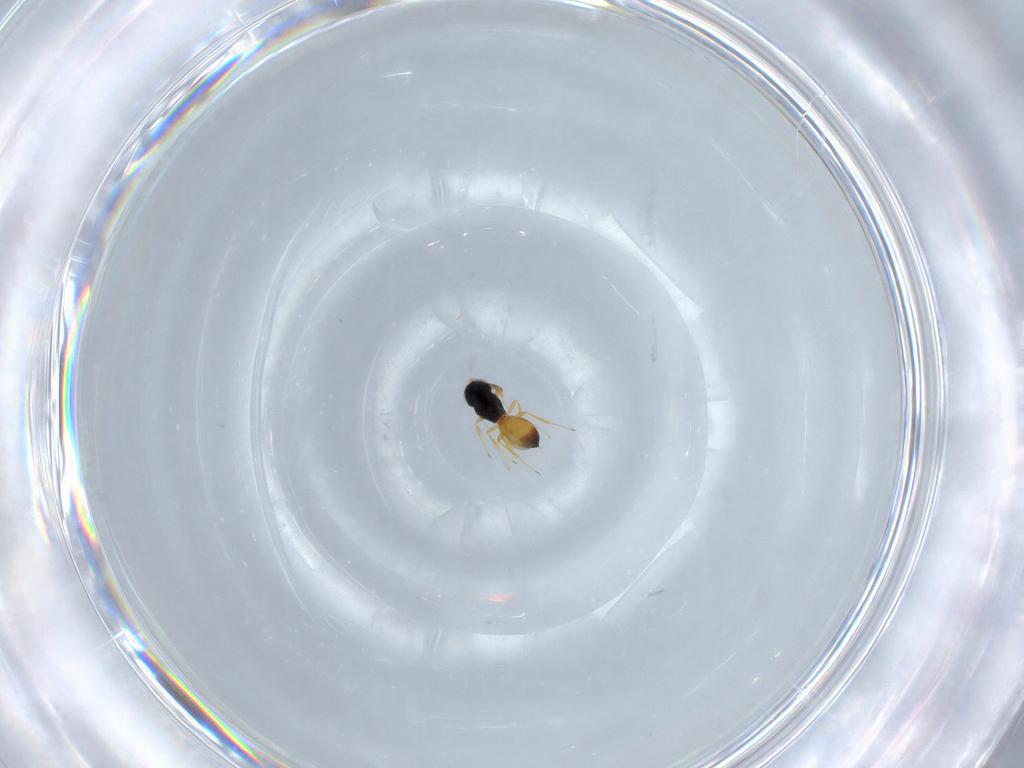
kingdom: Animalia
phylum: Arthropoda
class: Insecta
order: Hymenoptera
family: Scelionidae
